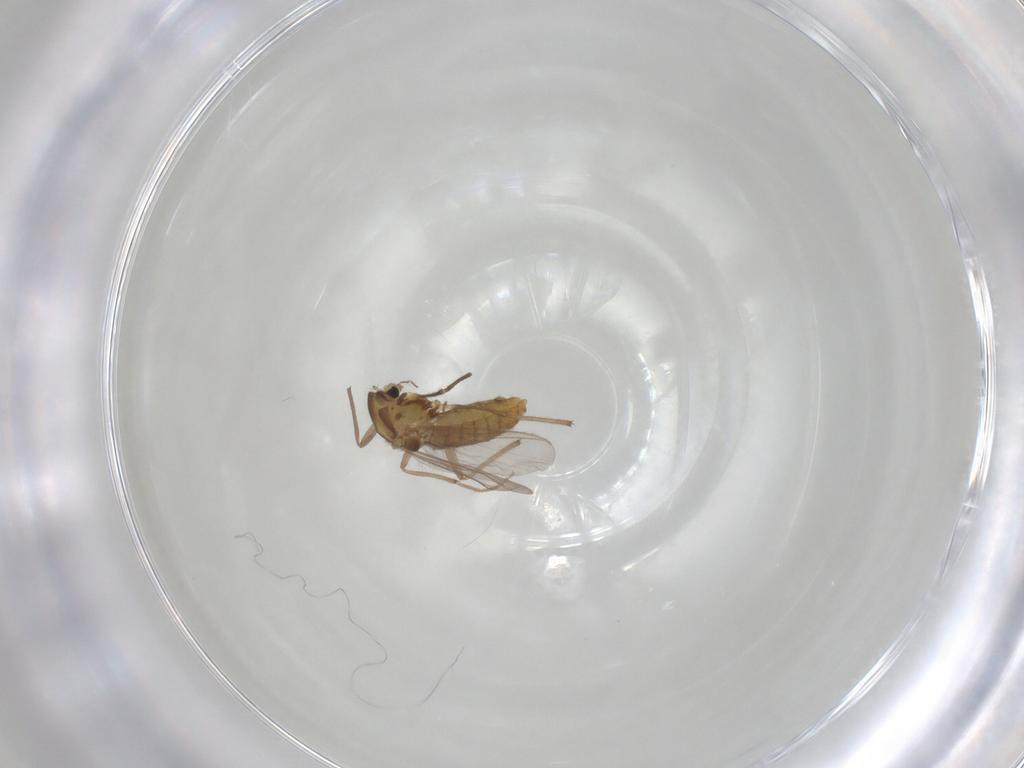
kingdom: Animalia
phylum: Arthropoda
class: Insecta
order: Diptera
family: Chironomidae
